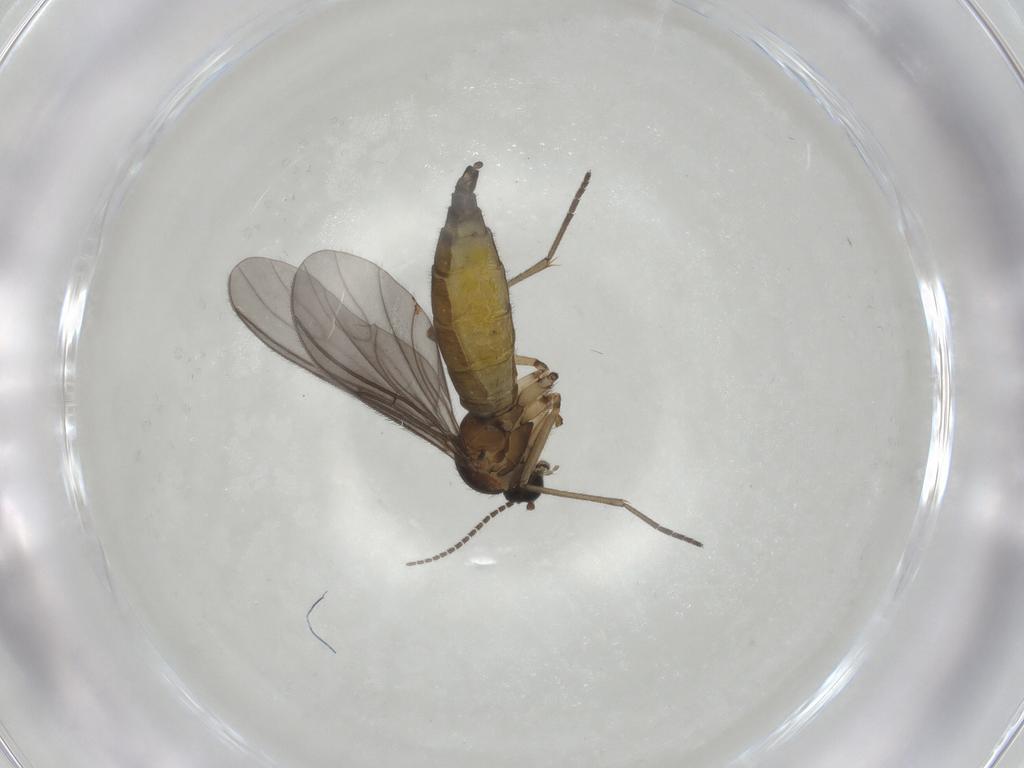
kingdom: Animalia
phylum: Arthropoda
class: Insecta
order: Diptera
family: Sciaridae
